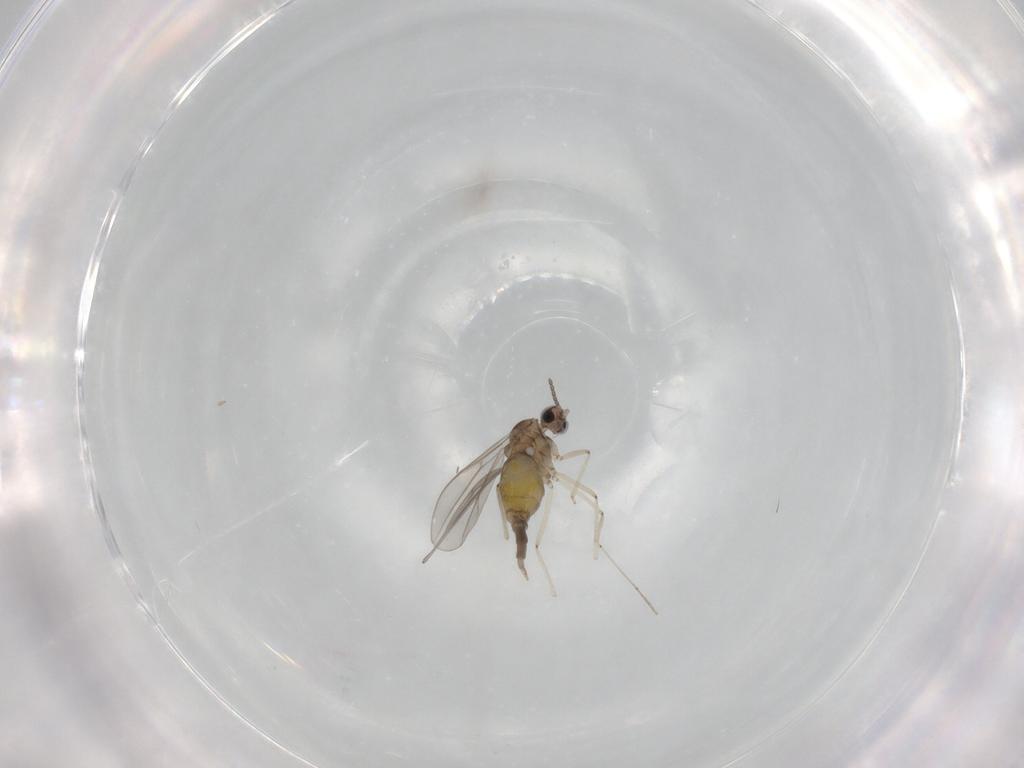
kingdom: Animalia
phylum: Arthropoda
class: Insecta
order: Diptera
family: Cecidomyiidae
